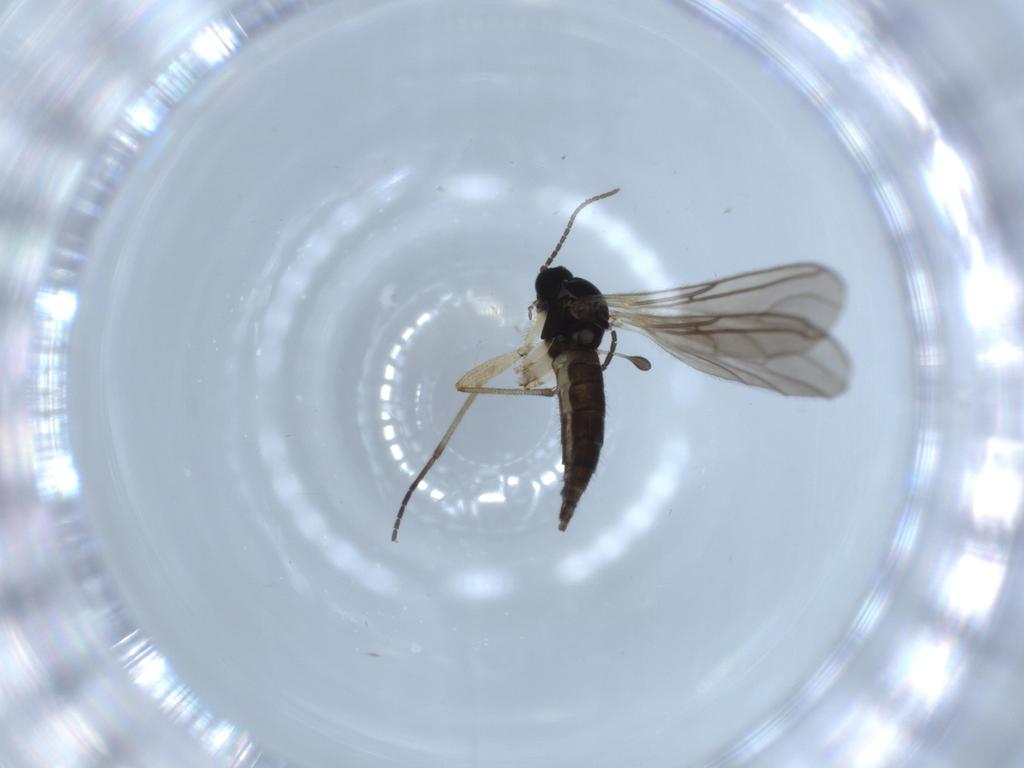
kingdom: Animalia
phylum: Arthropoda
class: Insecta
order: Diptera
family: Sciaridae
